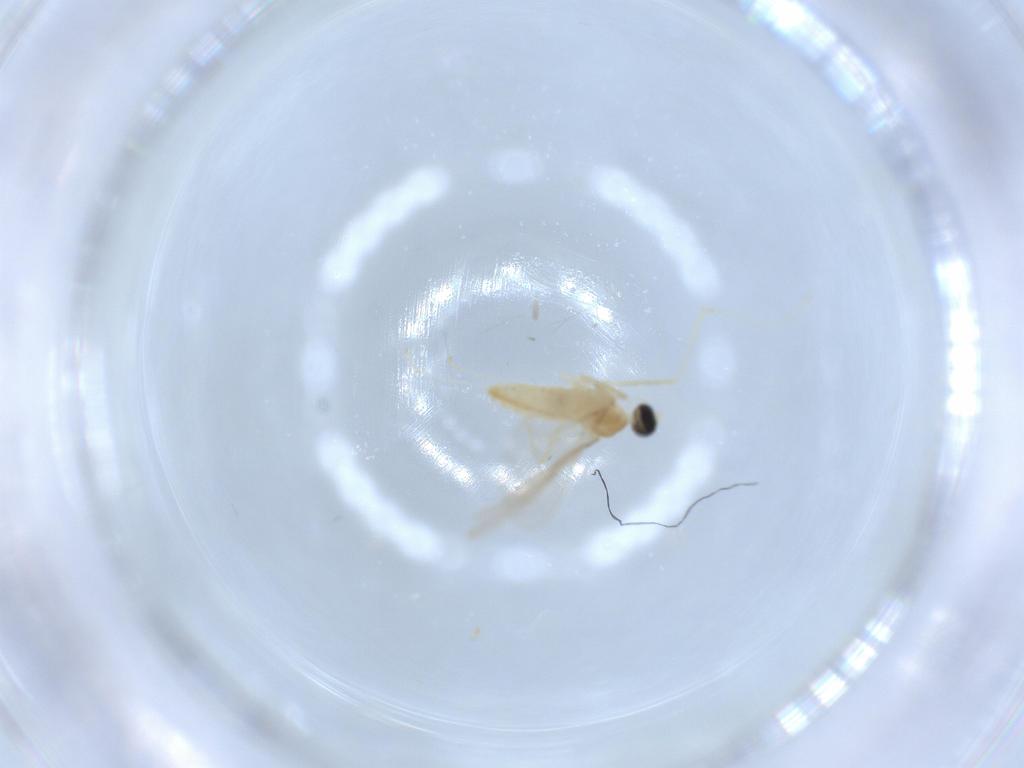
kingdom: Animalia
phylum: Arthropoda
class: Insecta
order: Diptera
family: Cecidomyiidae
